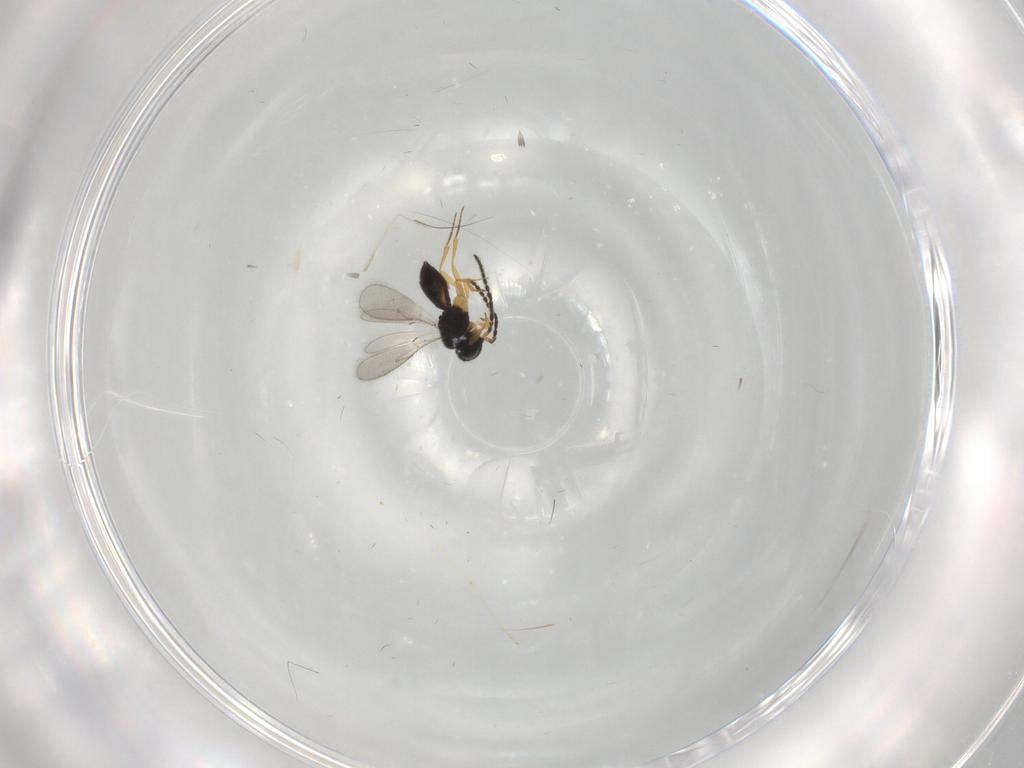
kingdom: Animalia
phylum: Arthropoda
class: Insecta
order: Hymenoptera
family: Scelionidae
